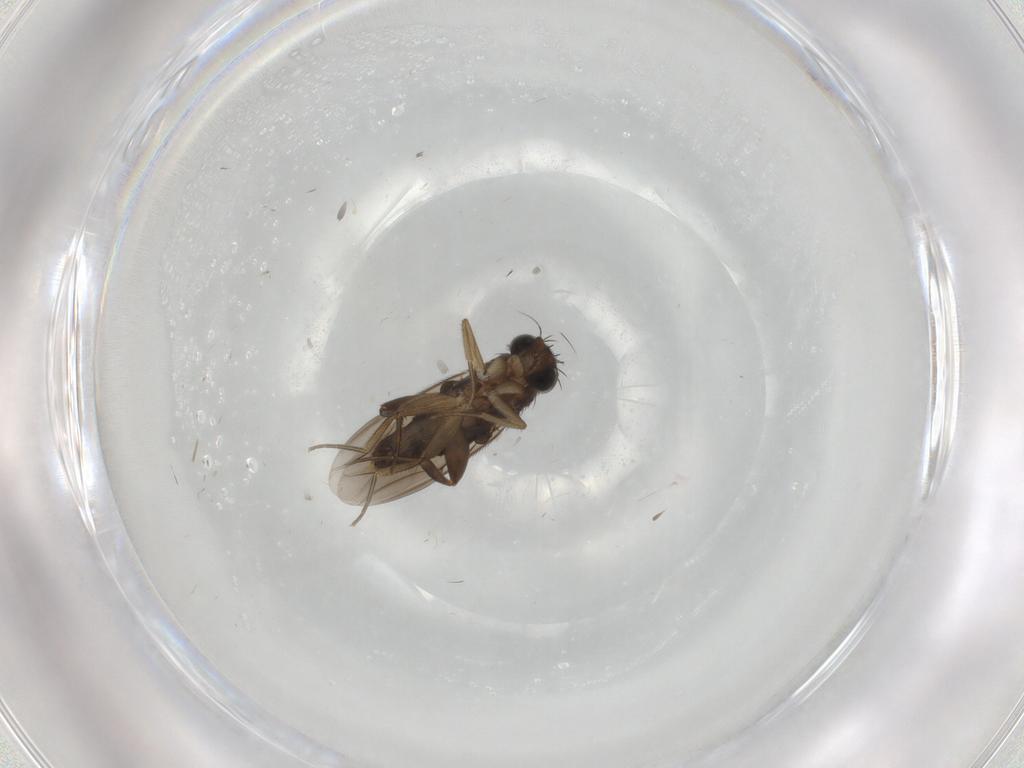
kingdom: Animalia
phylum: Arthropoda
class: Insecta
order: Diptera
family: Phoridae
